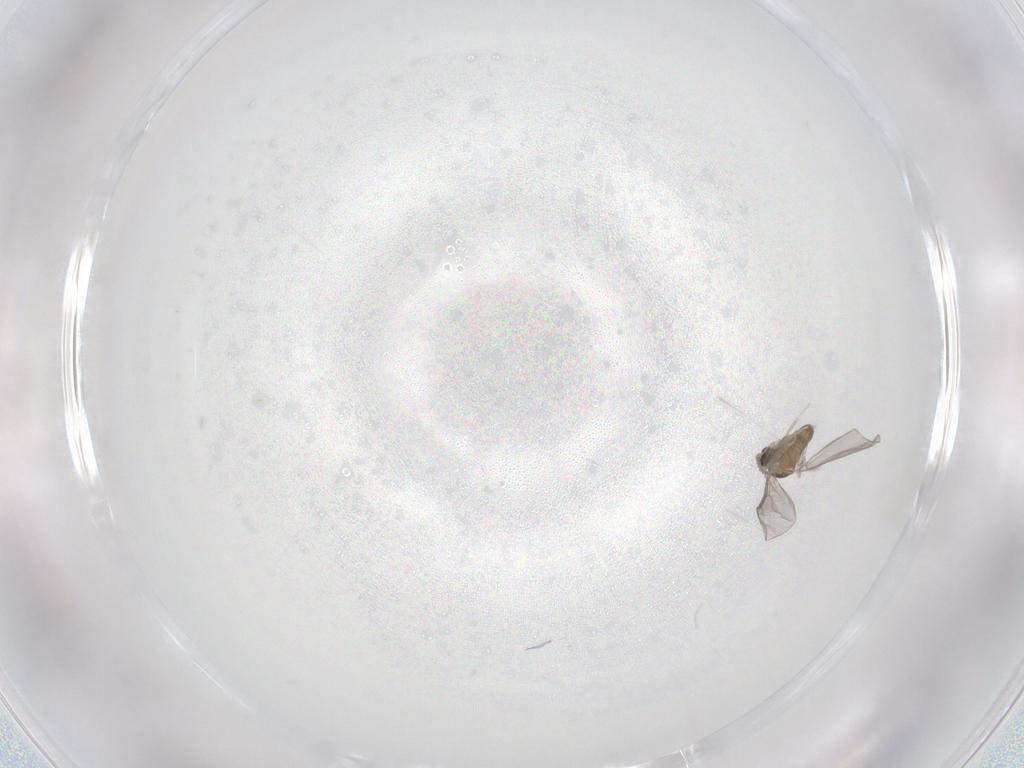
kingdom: Animalia
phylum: Arthropoda
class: Insecta
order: Diptera
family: Cecidomyiidae
